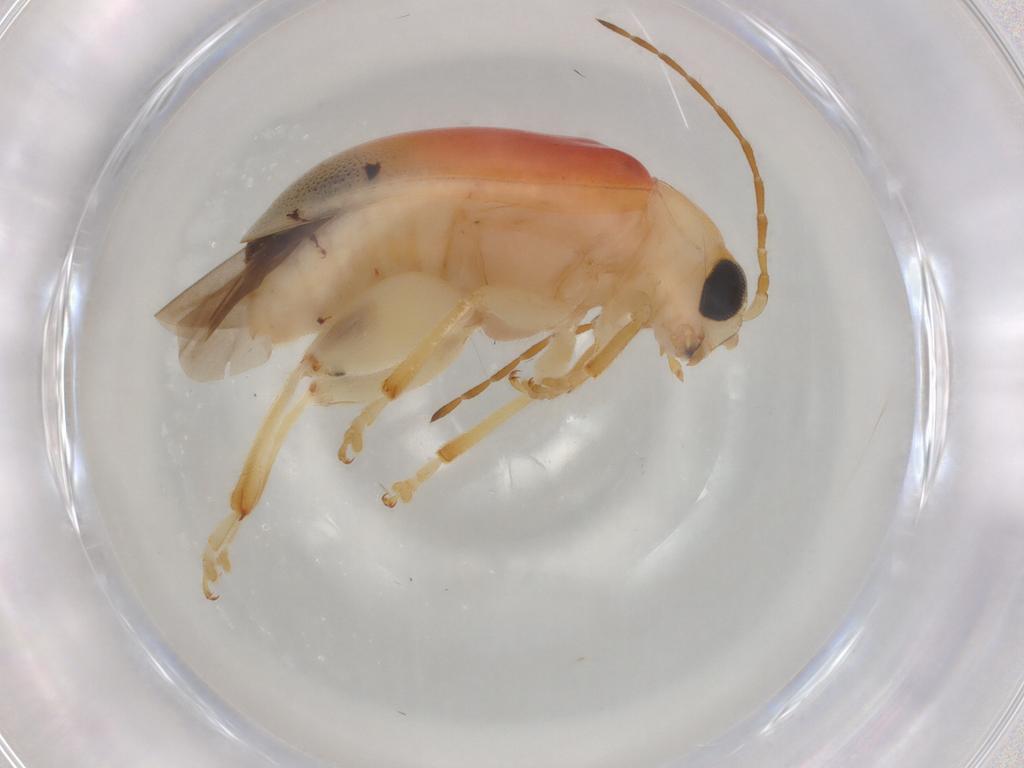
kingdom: Animalia
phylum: Arthropoda
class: Insecta
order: Coleoptera
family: Chrysomelidae
